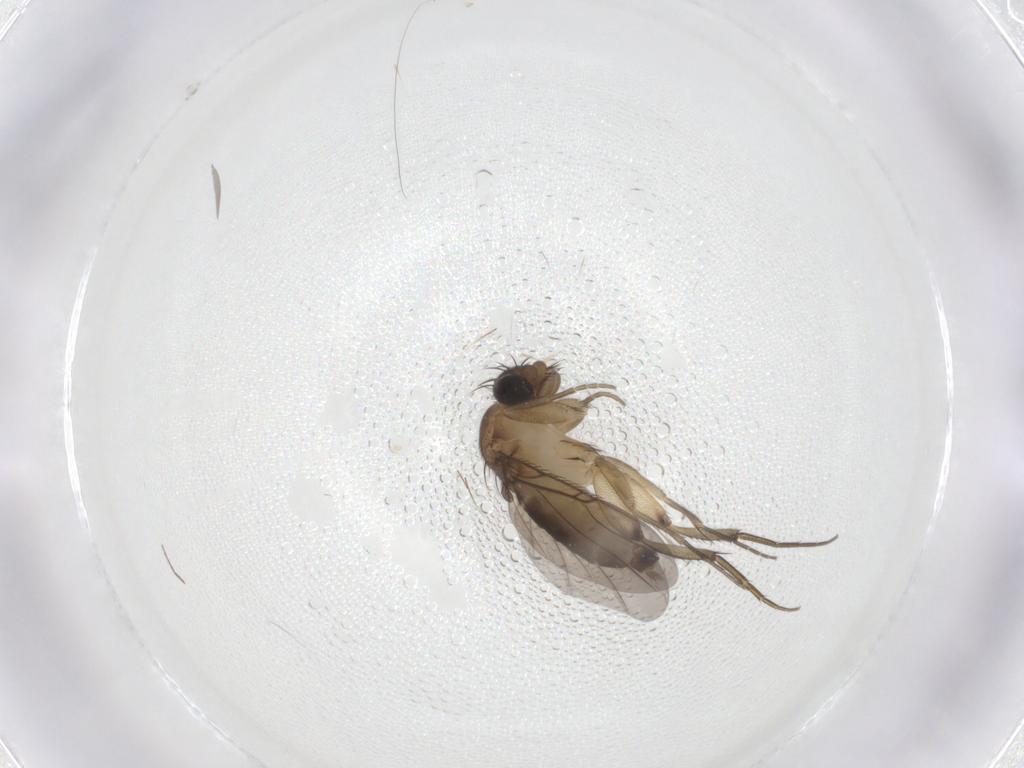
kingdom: Animalia
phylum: Arthropoda
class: Insecta
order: Diptera
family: Phoridae
